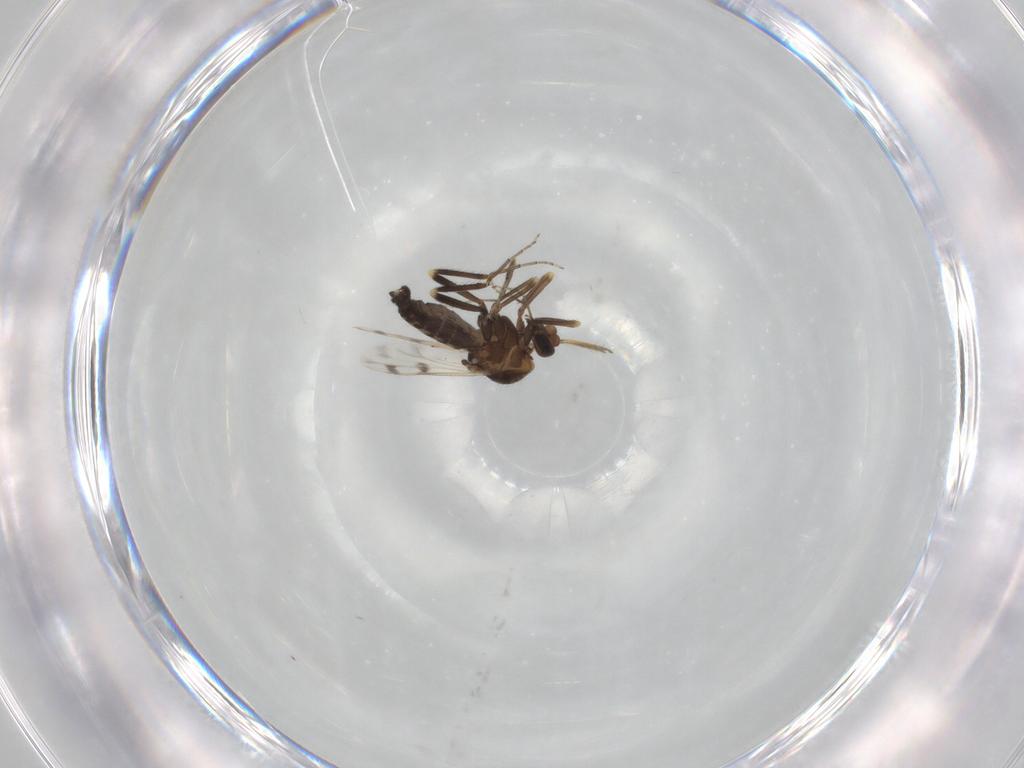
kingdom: Animalia
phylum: Arthropoda
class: Insecta
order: Diptera
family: Ceratopogonidae
